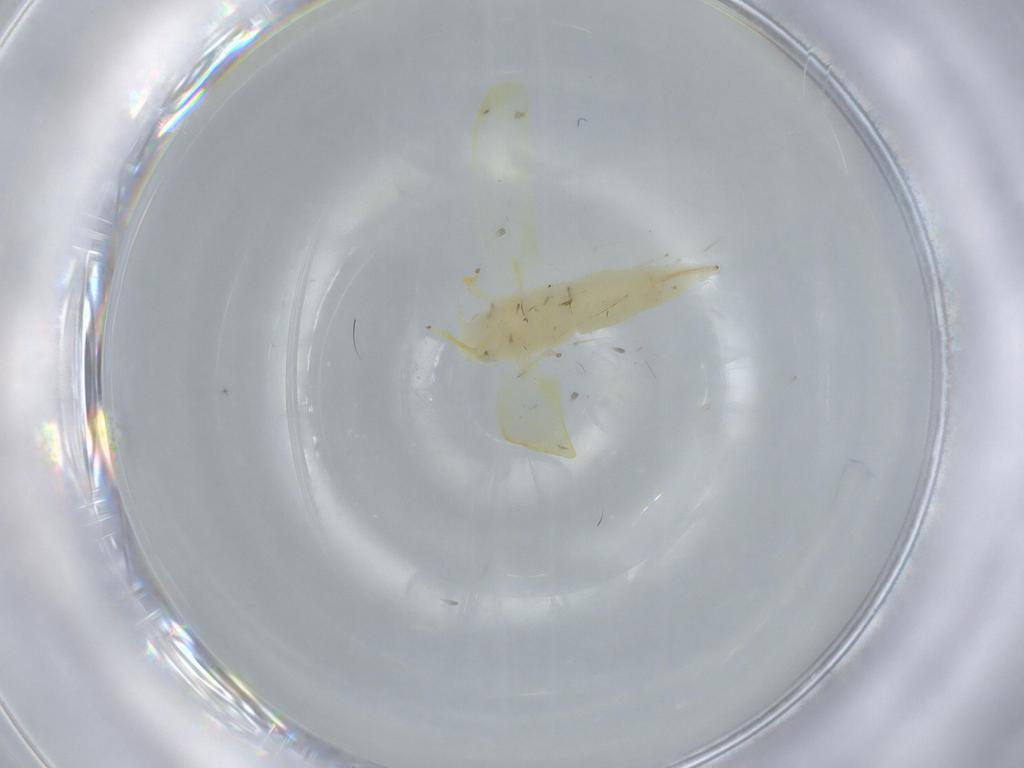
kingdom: Animalia
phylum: Arthropoda
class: Insecta
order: Hemiptera
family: Cicadellidae
